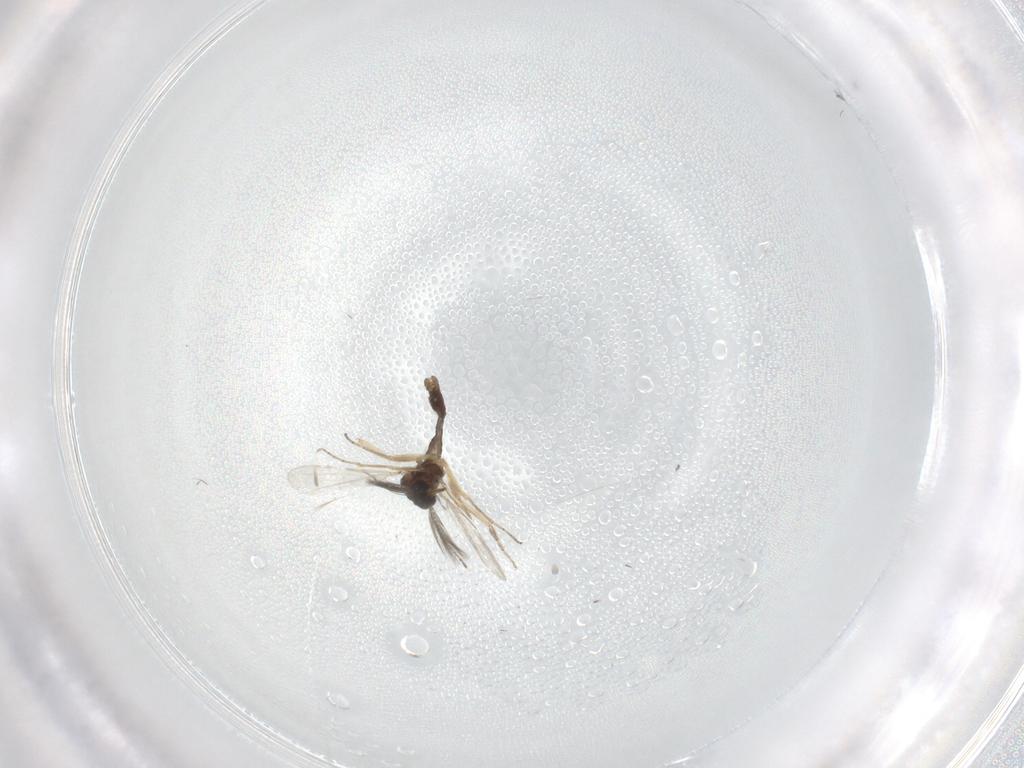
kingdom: Animalia
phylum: Arthropoda
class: Insecta
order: Diptera
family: Ceratopogonidae
